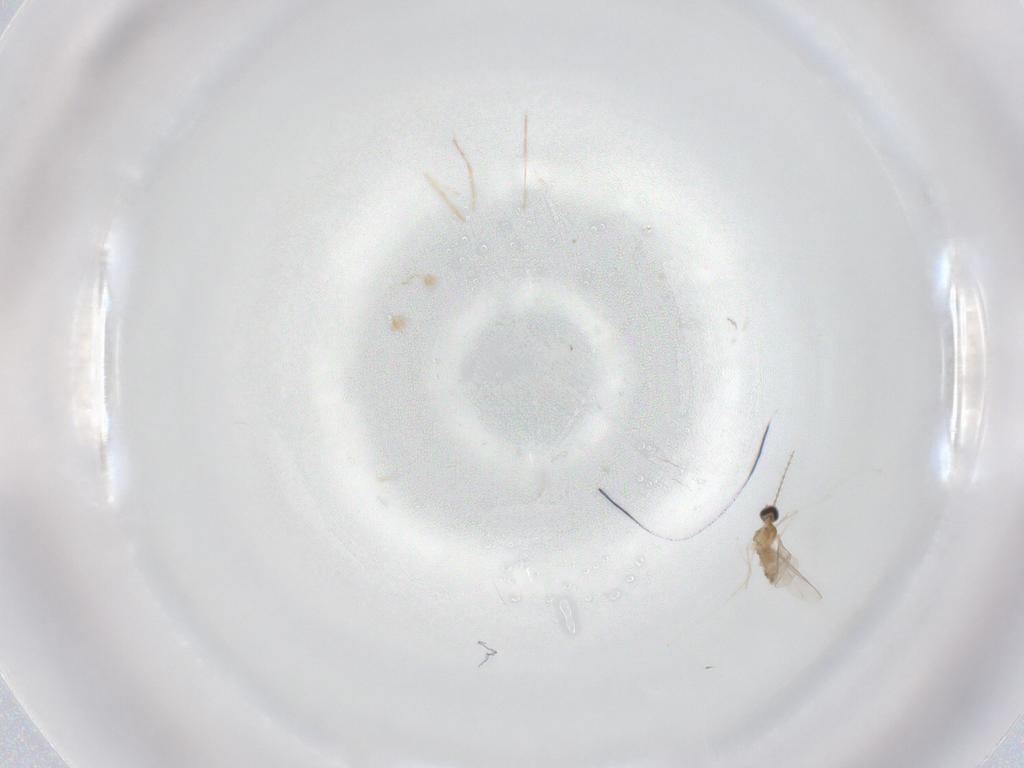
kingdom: Animalia
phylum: Arthropoda
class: Insecta
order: Diptera
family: Cecidomyiidae
